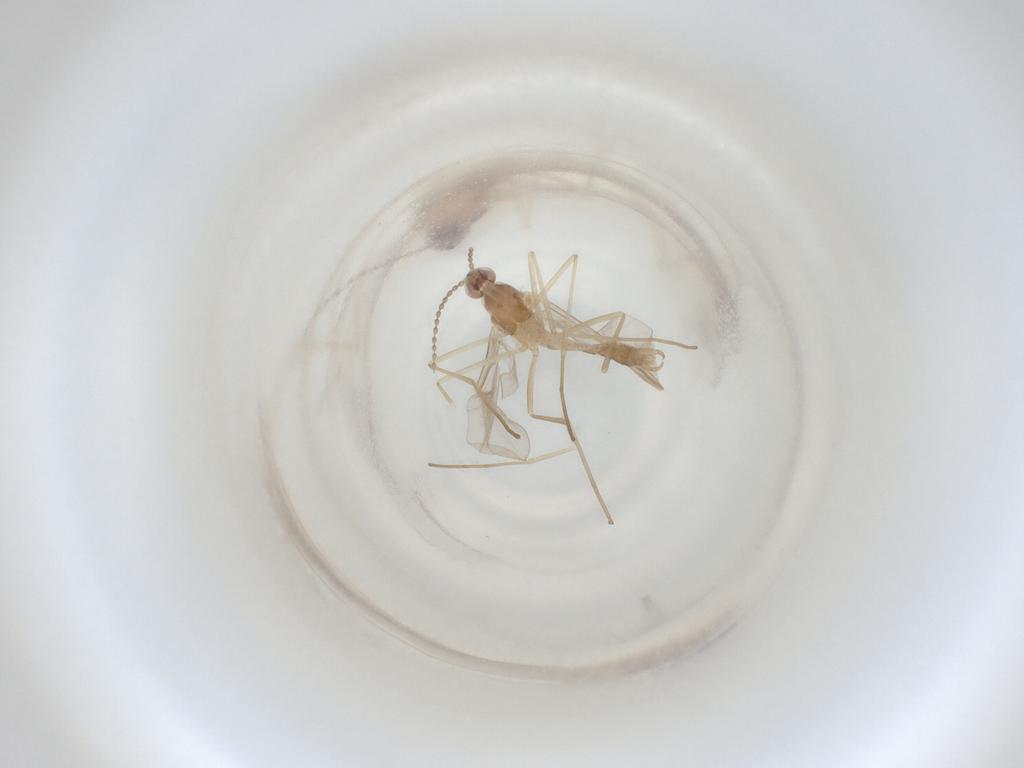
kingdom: Animalia
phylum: Arthropoda
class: Insecta
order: Diptera
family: Cecidomyiidae
